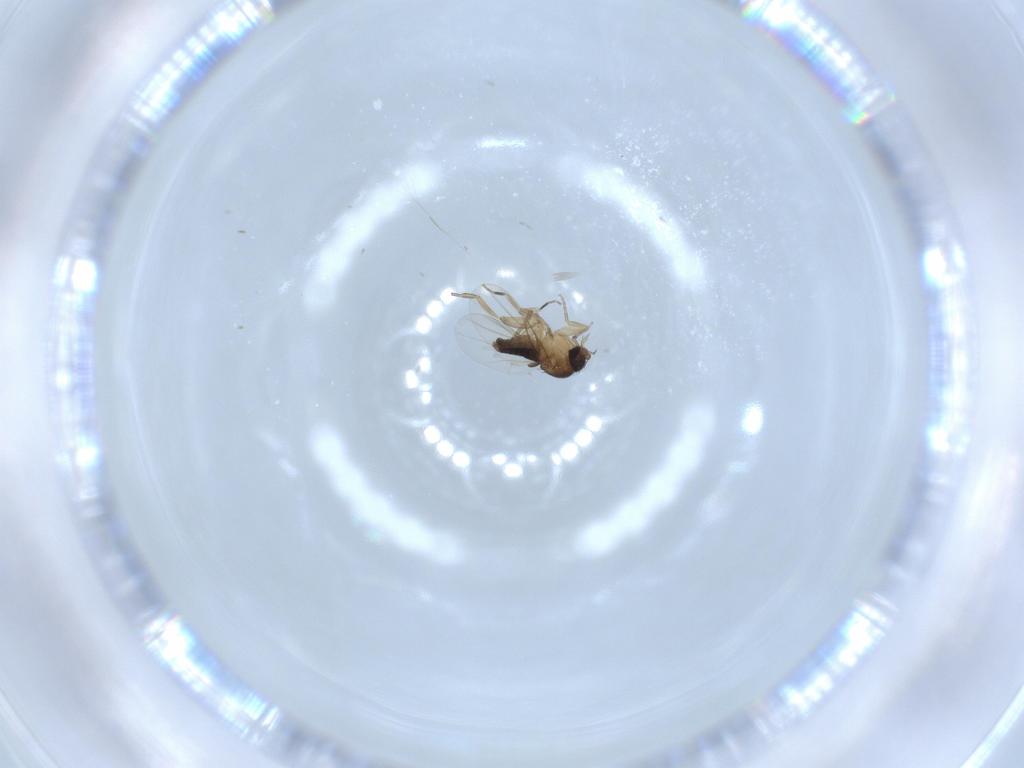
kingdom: Animalia
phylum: Arthropoda
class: Insecta
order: Diptera
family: Phoridae
